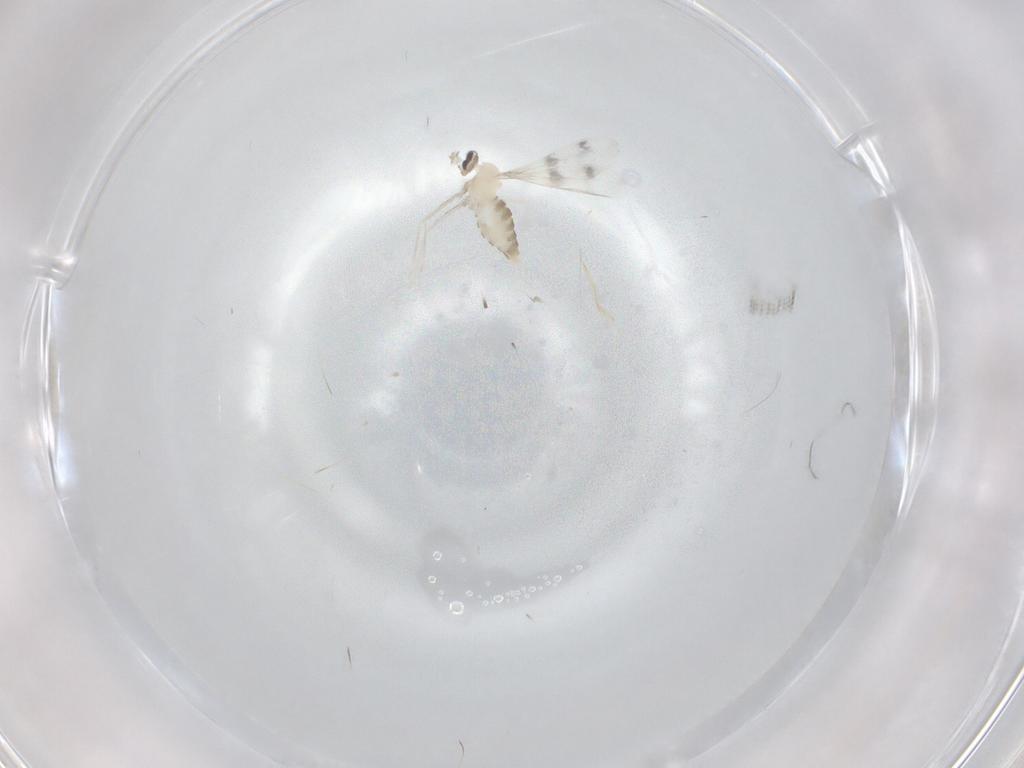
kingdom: Animalia
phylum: Arthropoda
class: Insecta
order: Diptera
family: Cecidomyiidae
